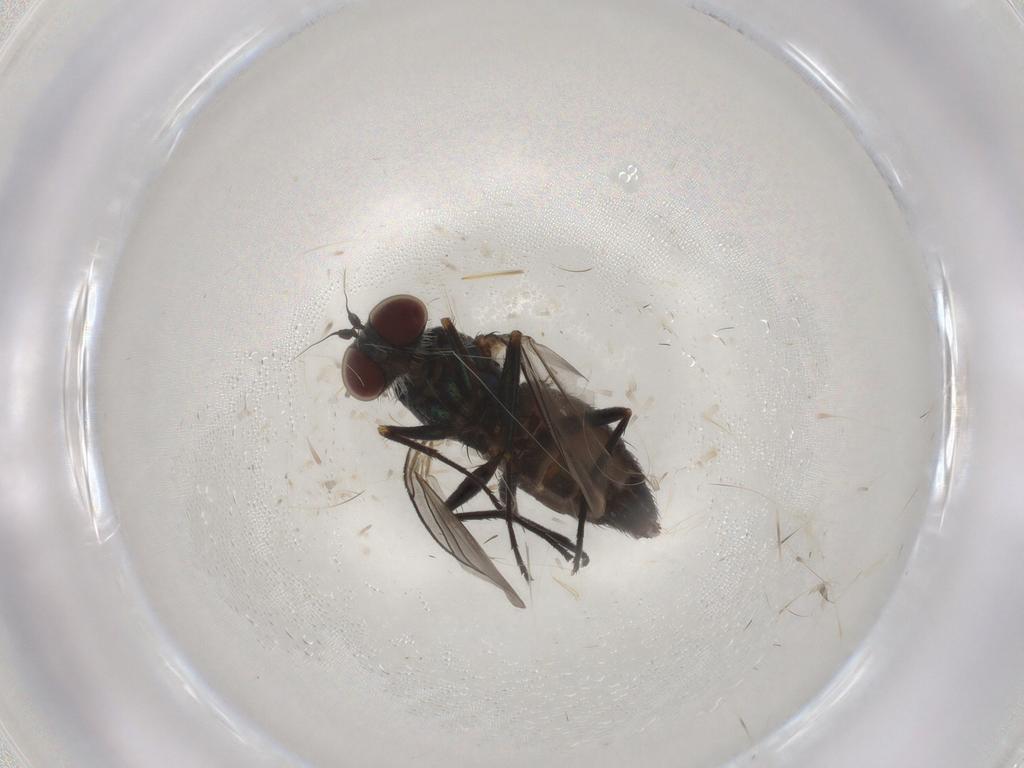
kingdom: Animalia
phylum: Arthropoda
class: Insecta
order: Diptera
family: Dolichopodidae
